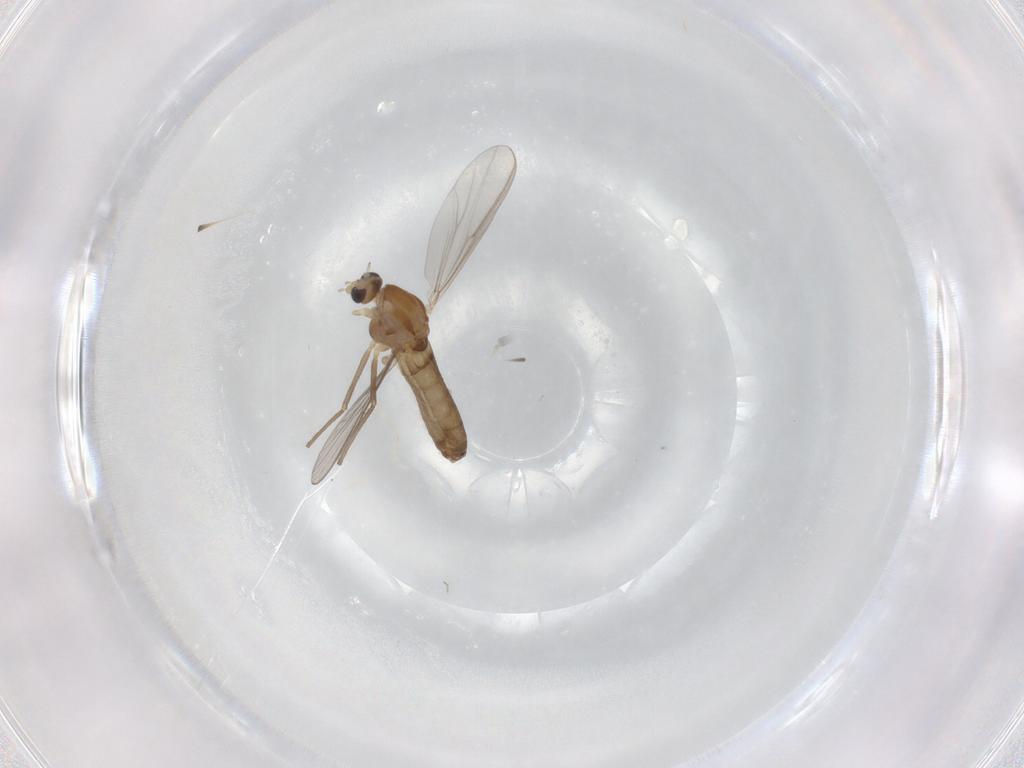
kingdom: Animalia
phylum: Arthropoda
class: Insecta
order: Diptera
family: Chironomidae
